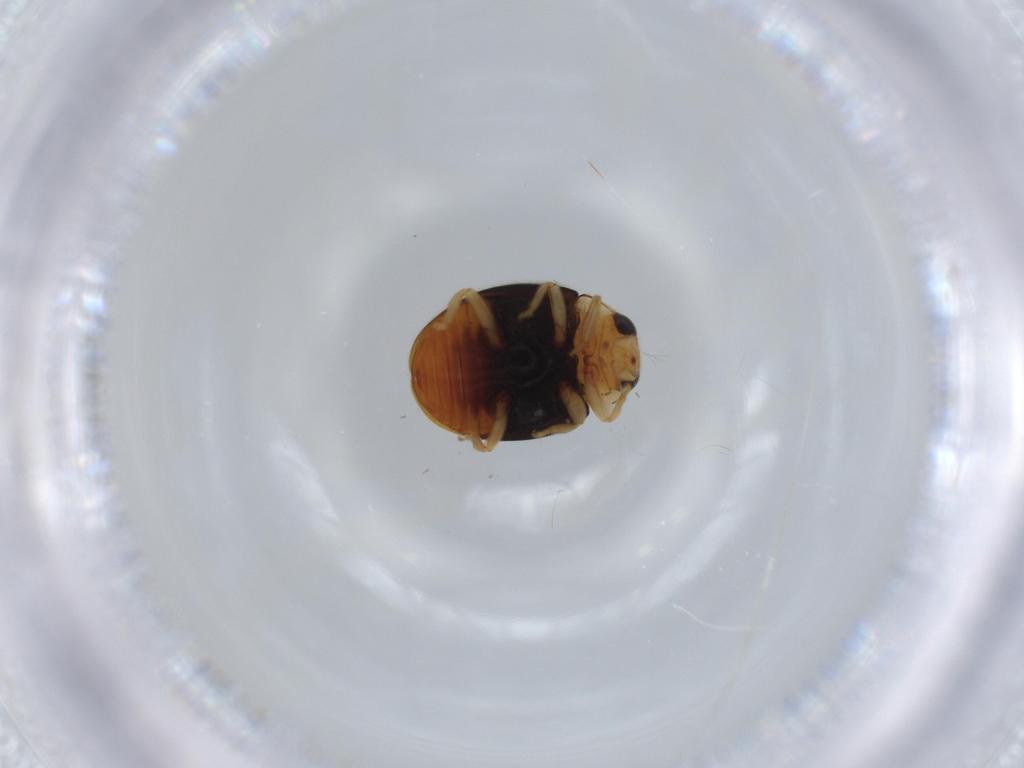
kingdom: Animalia
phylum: Arthropoda
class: Insecta
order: Coleoptera
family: Coccinellidae
